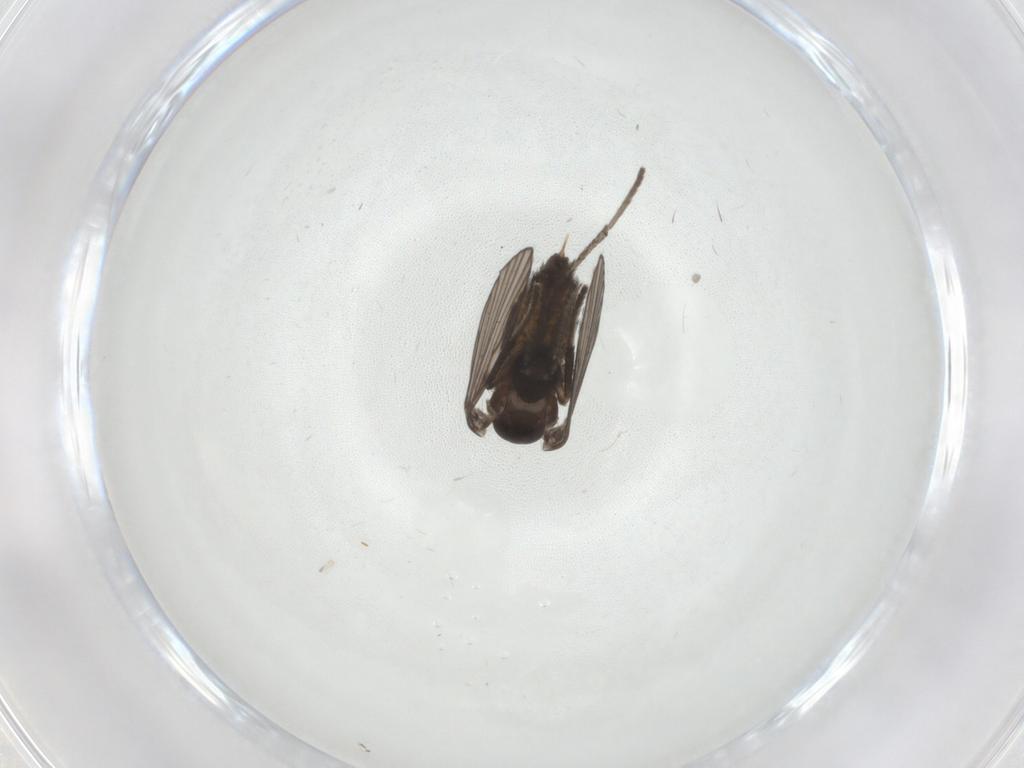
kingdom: Animalia
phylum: Arthropoda
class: Insecta
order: Diptera
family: Psychodidae
